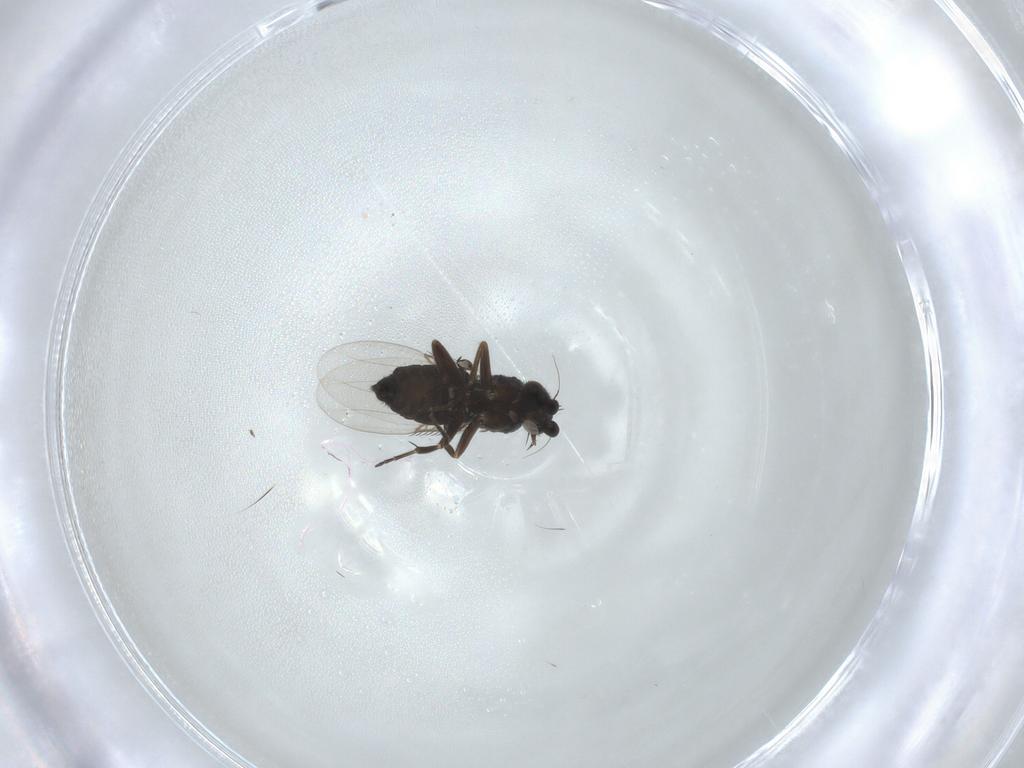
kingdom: Animalia
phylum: Arthropoda
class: Insecta
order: Diptera
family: Phoridae
